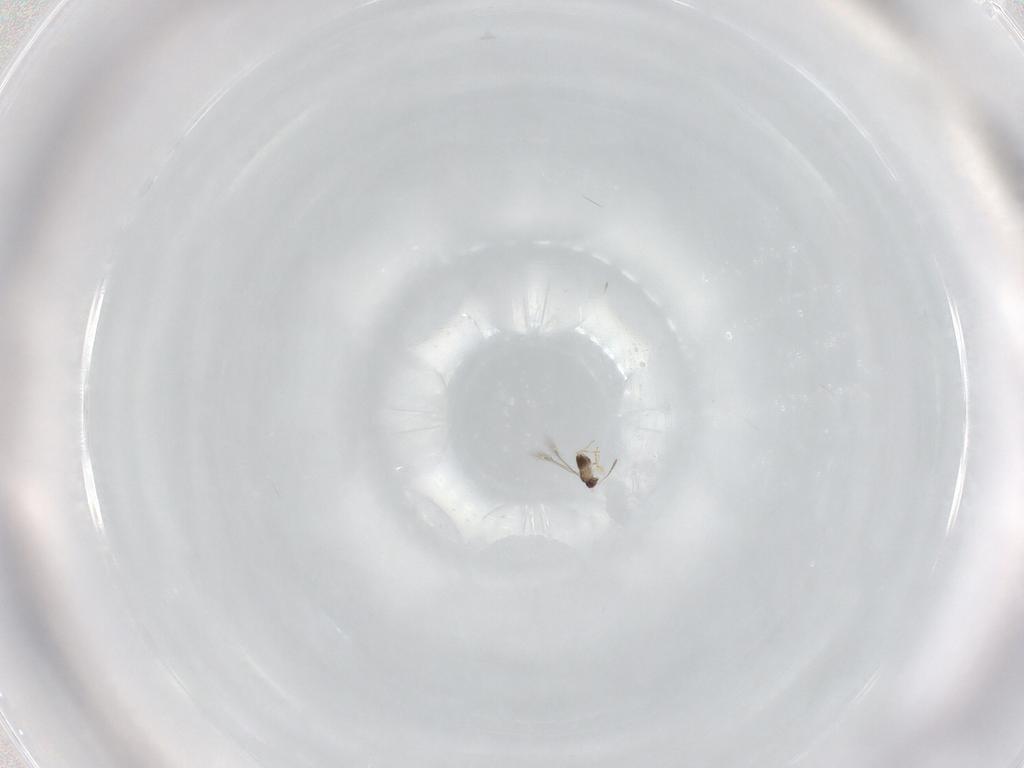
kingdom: Animalia
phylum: Arthropoda
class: Insecta
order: Hymenoptera
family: Mymaridae
